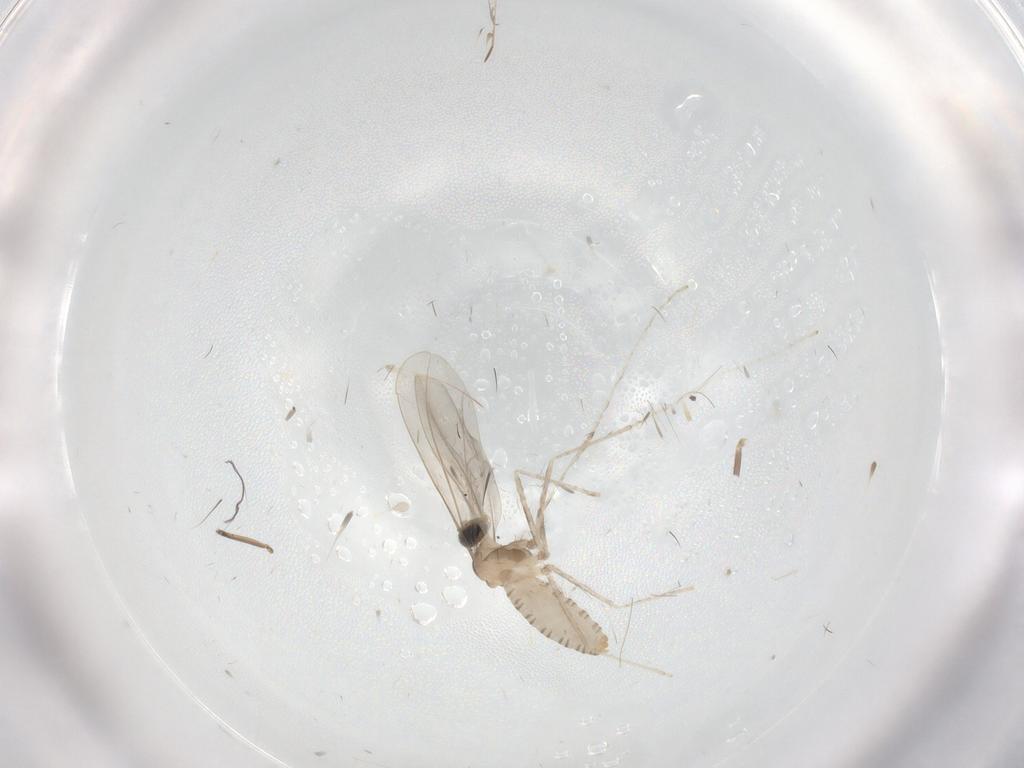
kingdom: Animalia
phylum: Arthropoda
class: Insecta
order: Diptera
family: Cecidomyiidae
